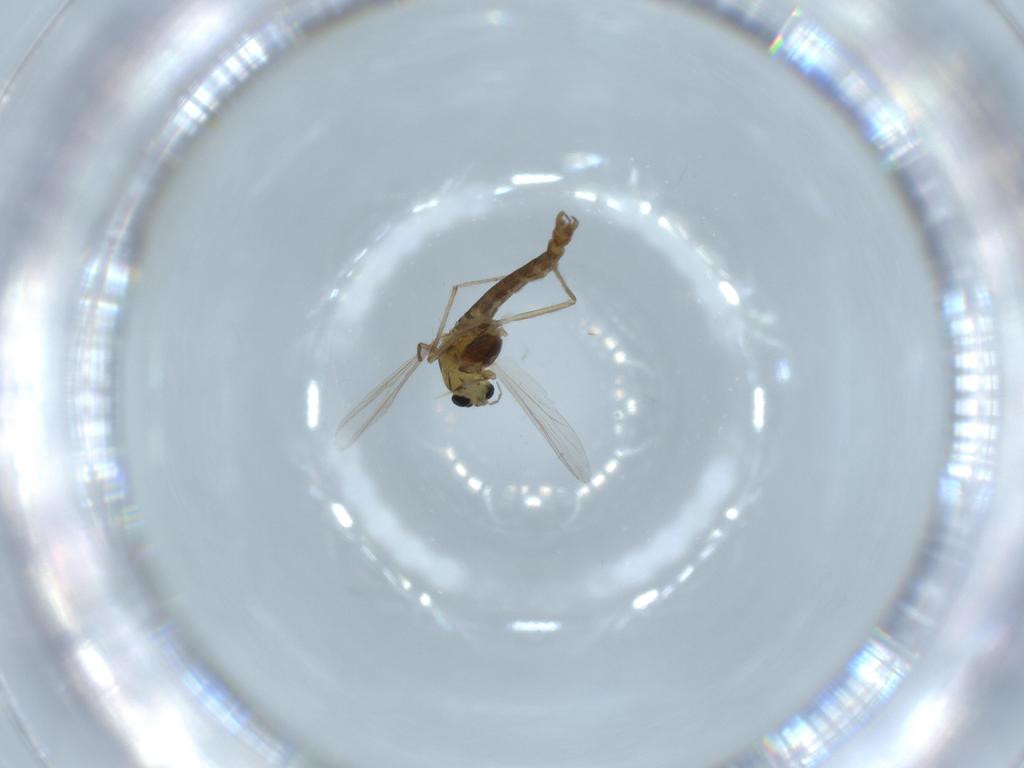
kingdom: Animalia
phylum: Arthropoda
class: Insecta
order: Diptera
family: Chironomidae
